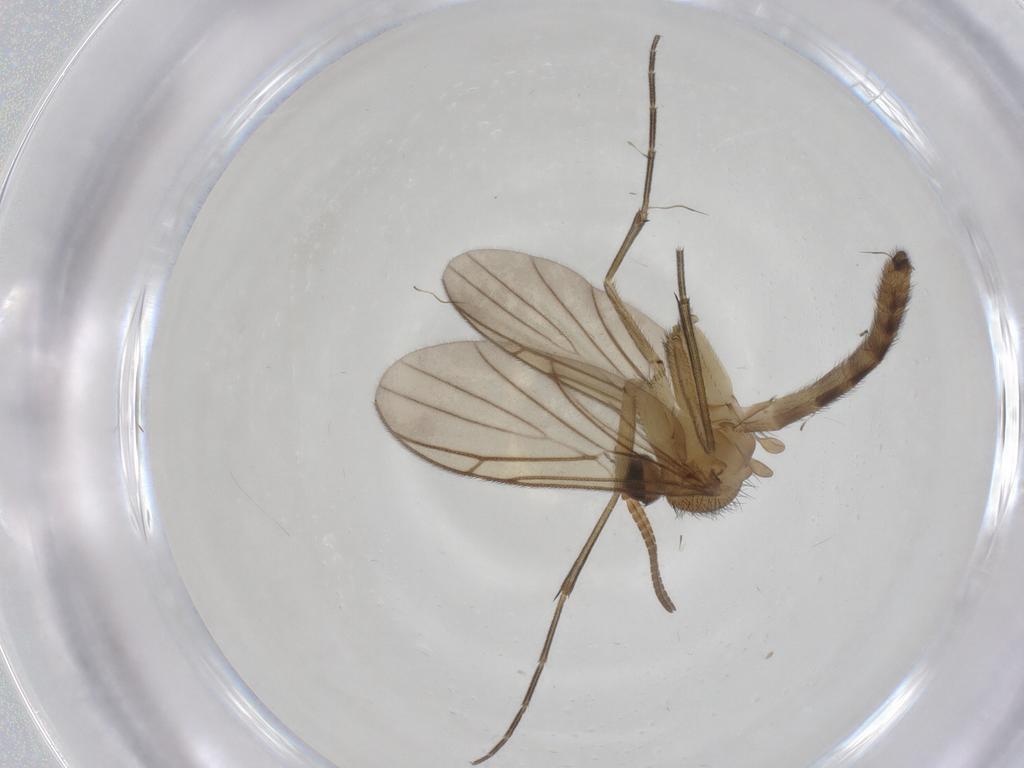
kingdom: Animalia
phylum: Arthropoda
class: Insecta
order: Diptera
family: Keroplatidae
